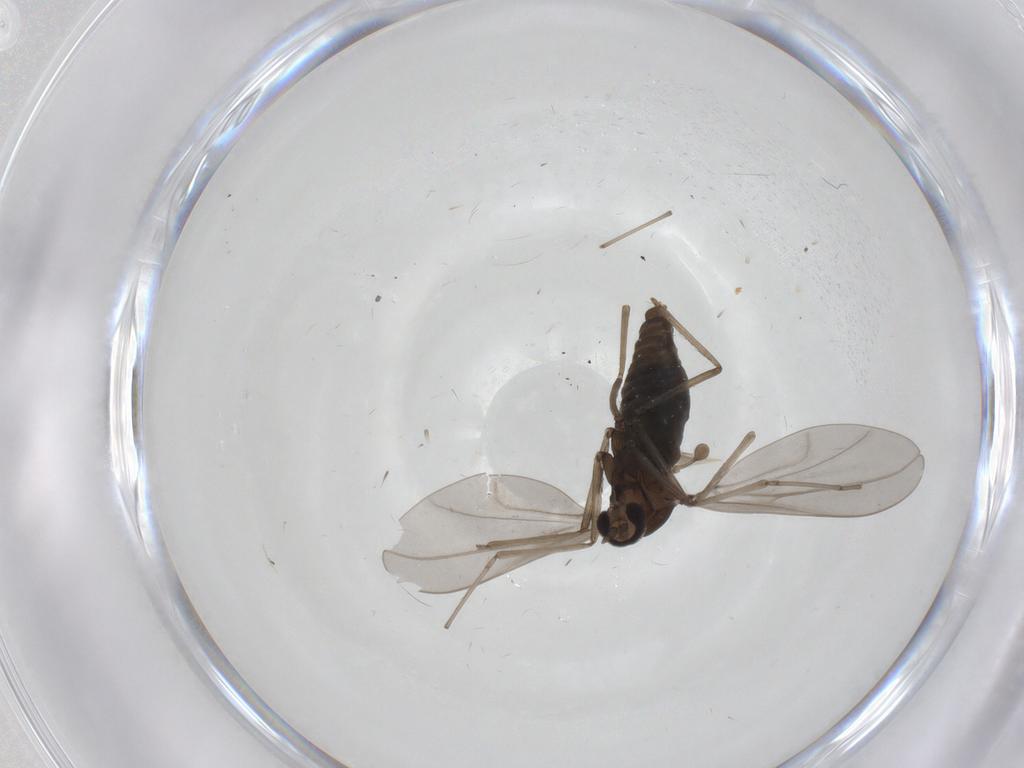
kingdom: Animalia
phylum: Arthropoda
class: Insecta
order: Diptera
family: Cecidomyiidae
